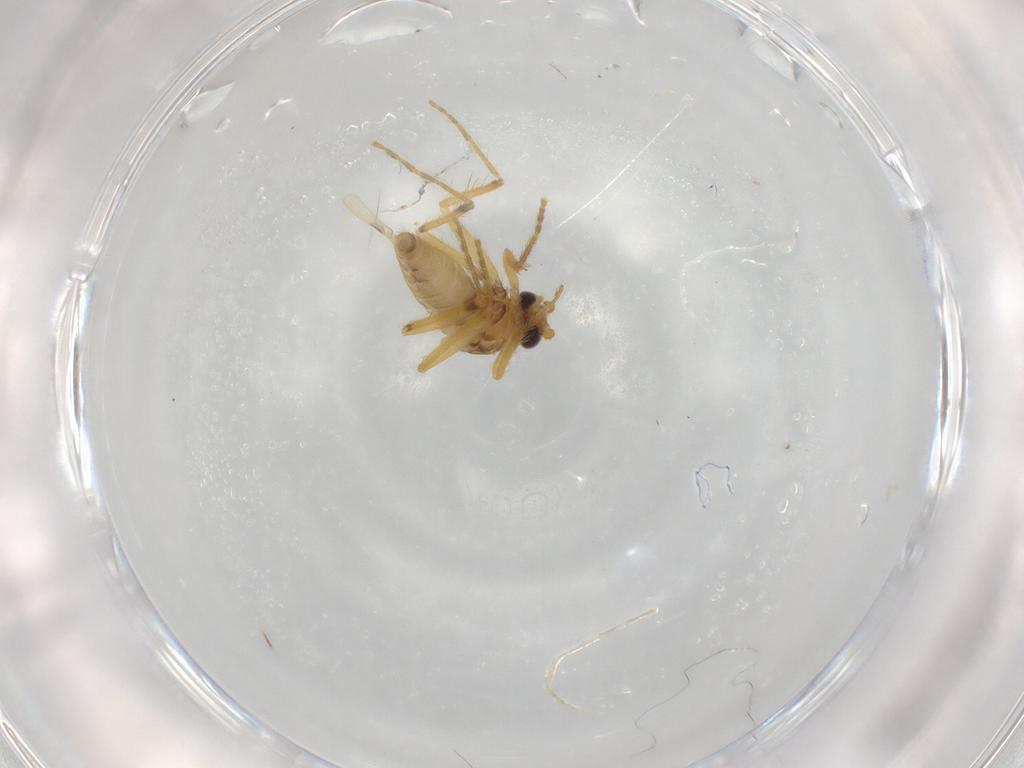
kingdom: Animalia
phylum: Arthropoda
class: Insecta
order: Diptera
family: Corethrellidae
